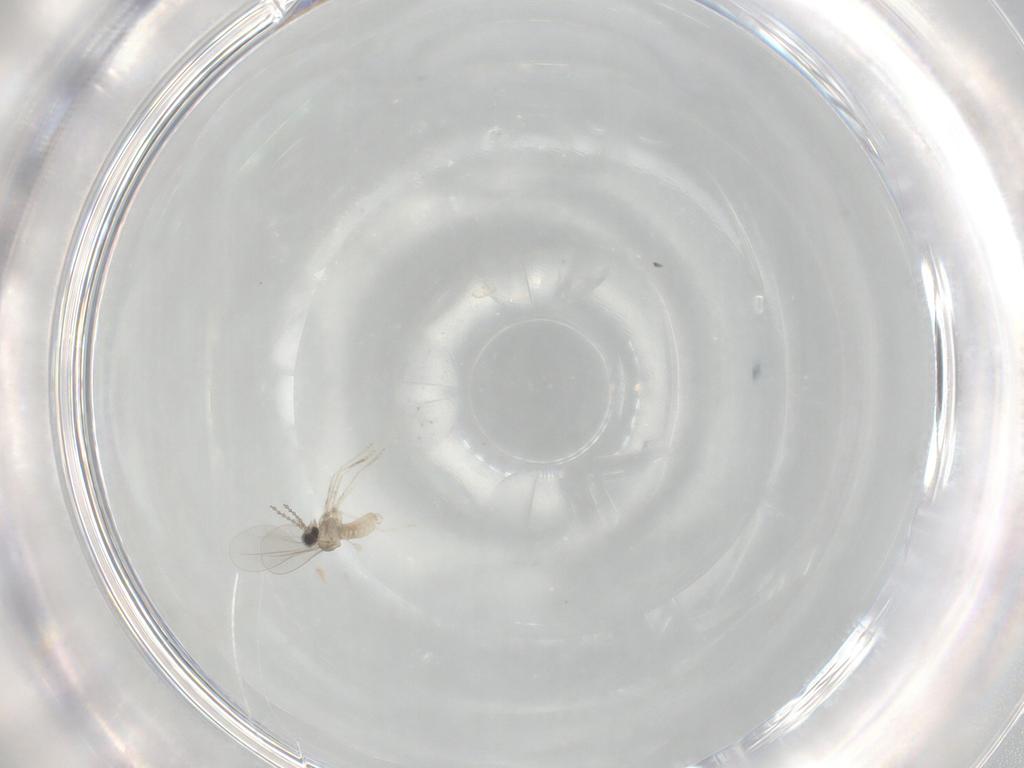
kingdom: Animalia
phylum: Arthropoda
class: Insecta
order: Diptera
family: Cecidomyiidae
